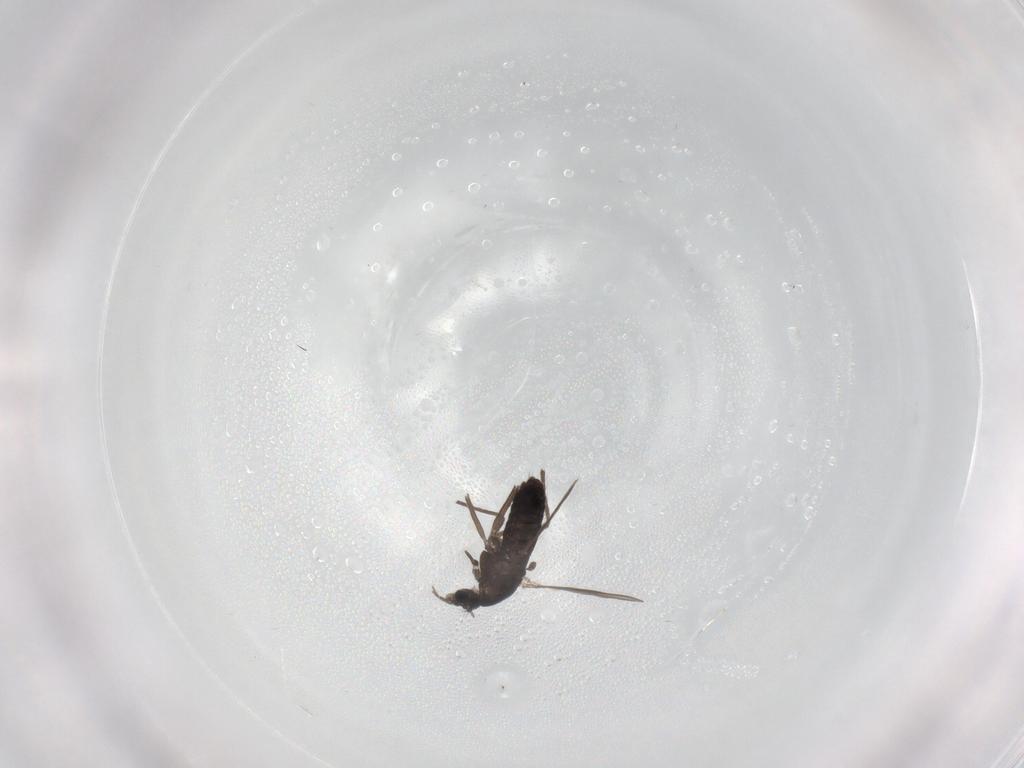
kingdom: Animalia
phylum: Arthropoda
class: Insecta
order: Diptera
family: Chironomidae
